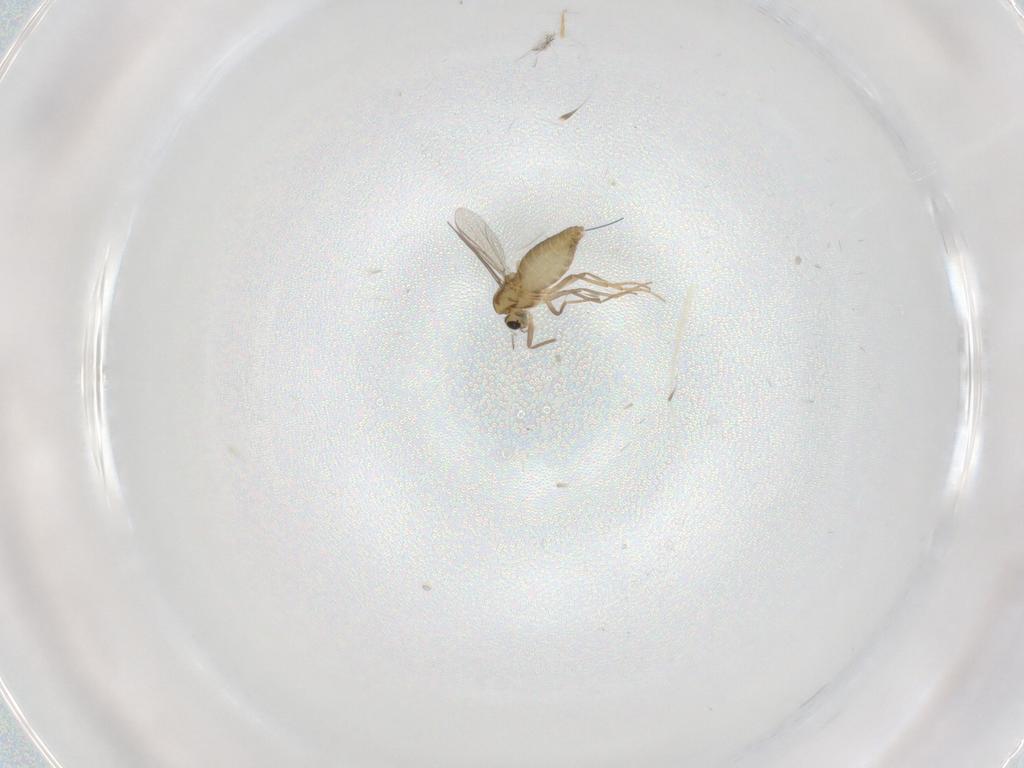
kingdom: Animalia
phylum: Arthropoda
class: Insecta
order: Diptera
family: Chironomidae
